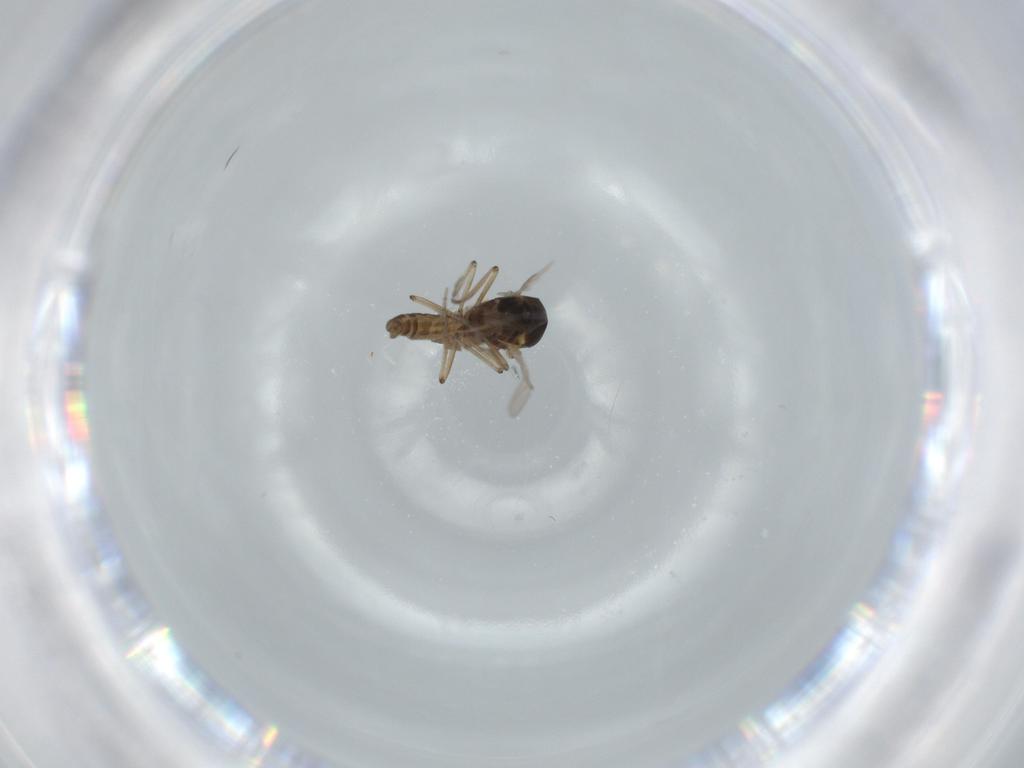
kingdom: Animalia
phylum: Arthropoda
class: Insecta
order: Diptera
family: Ceratopogonidae
